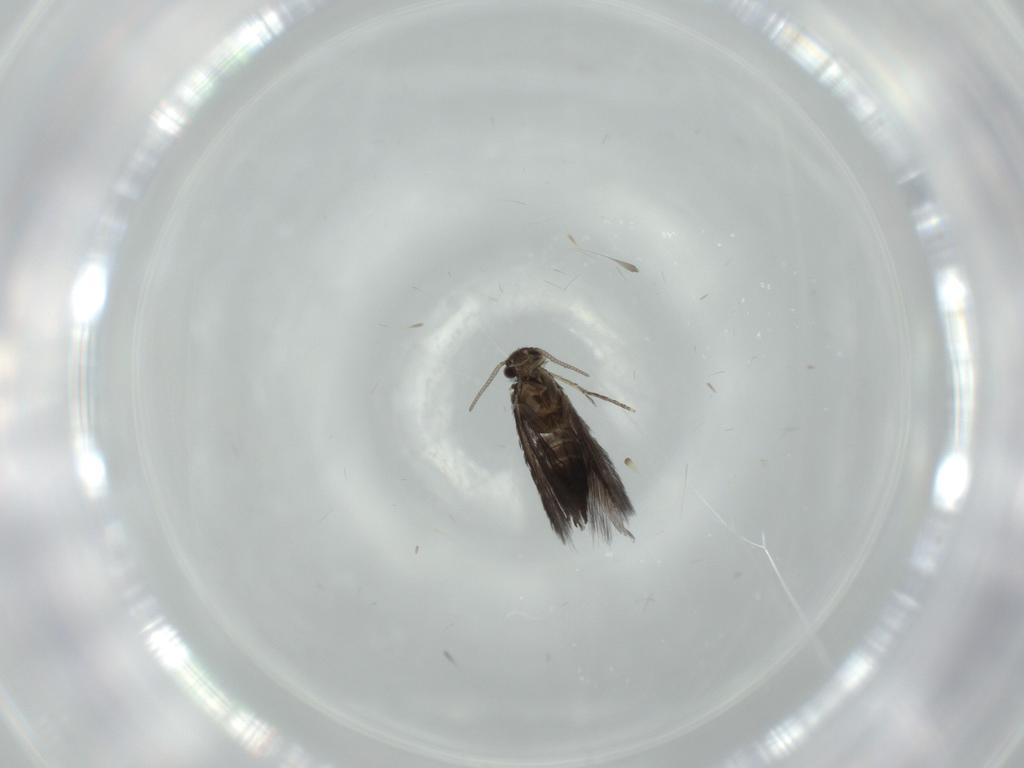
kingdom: Animalia
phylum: Arthropoda
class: Insecta
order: Trichoptera
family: Hydroptilidae
